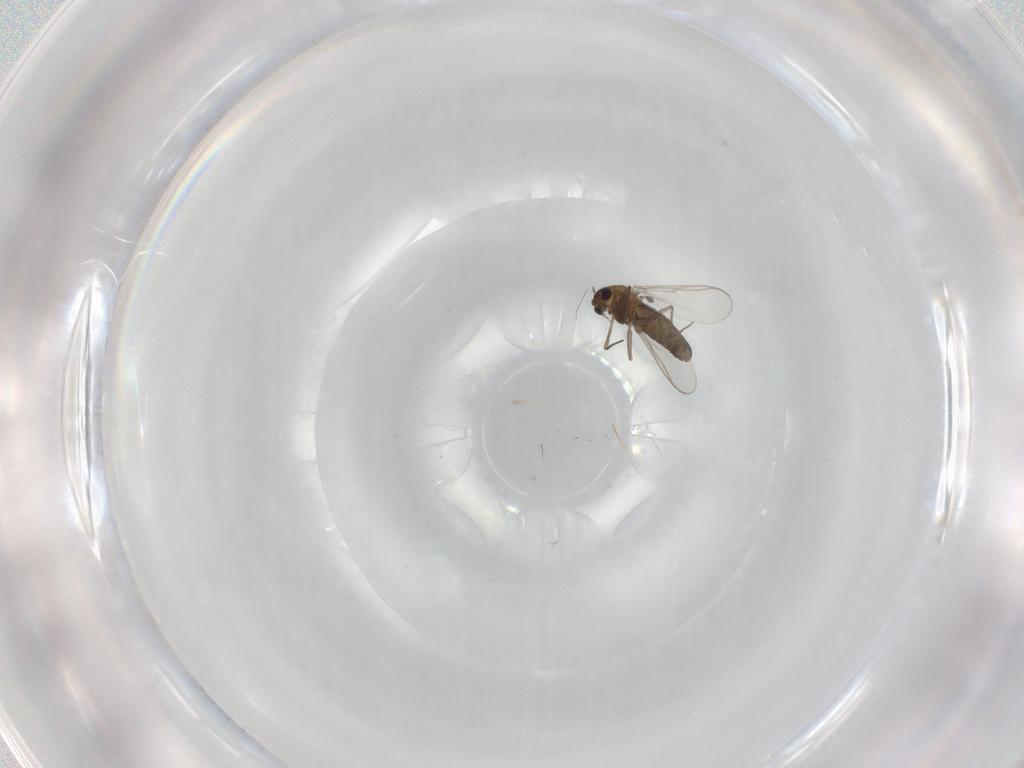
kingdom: Animalia
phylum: Arthropoda
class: Insecta
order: Diptera
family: Chironomidae
